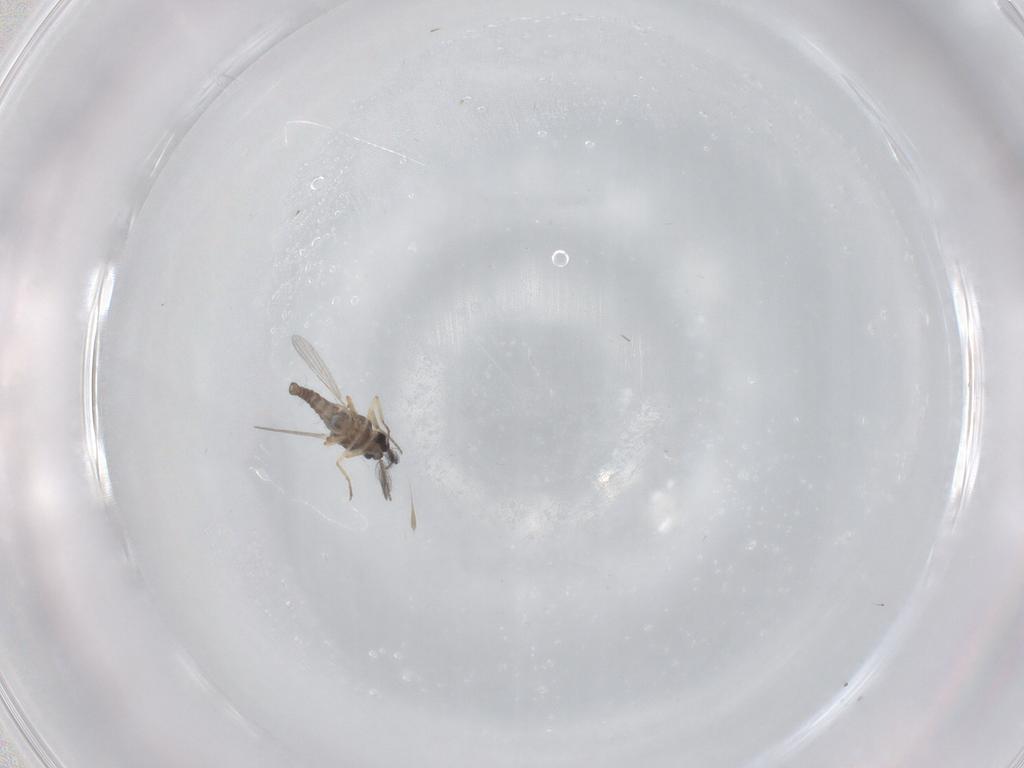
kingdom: Animalia
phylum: Arthropoda
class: Insecta
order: Diptera
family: Ceratopogonidae
